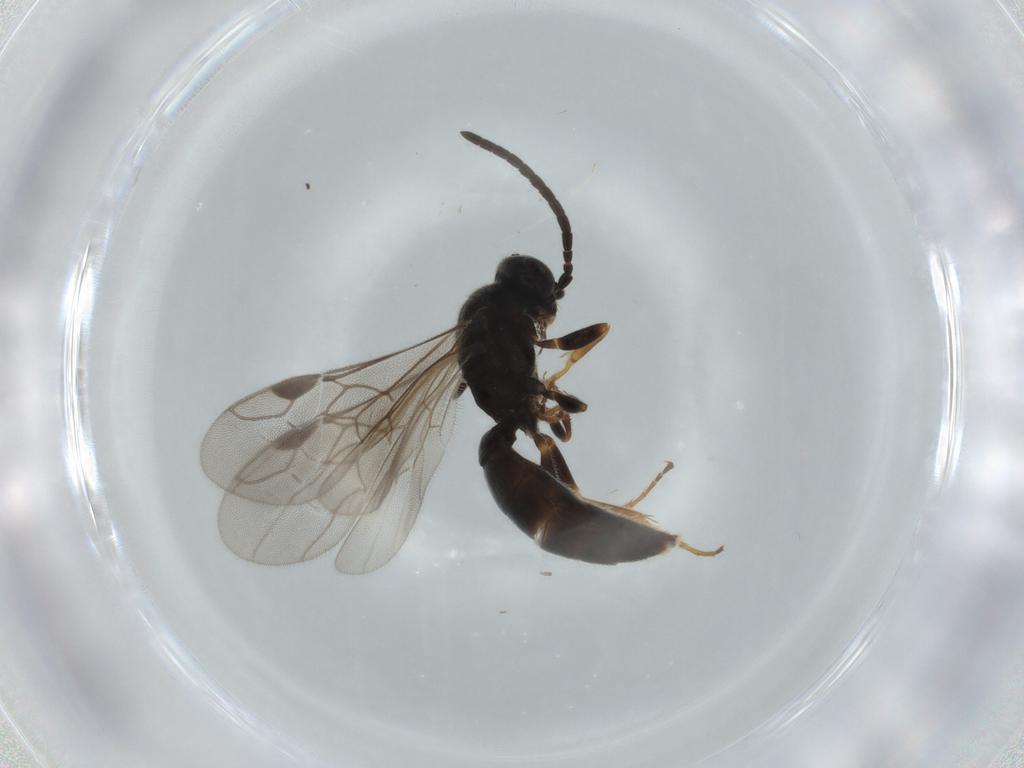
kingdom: Animalia
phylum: Arthropoda
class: Insecta
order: Hymenoptera
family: Sierolomorphidae
